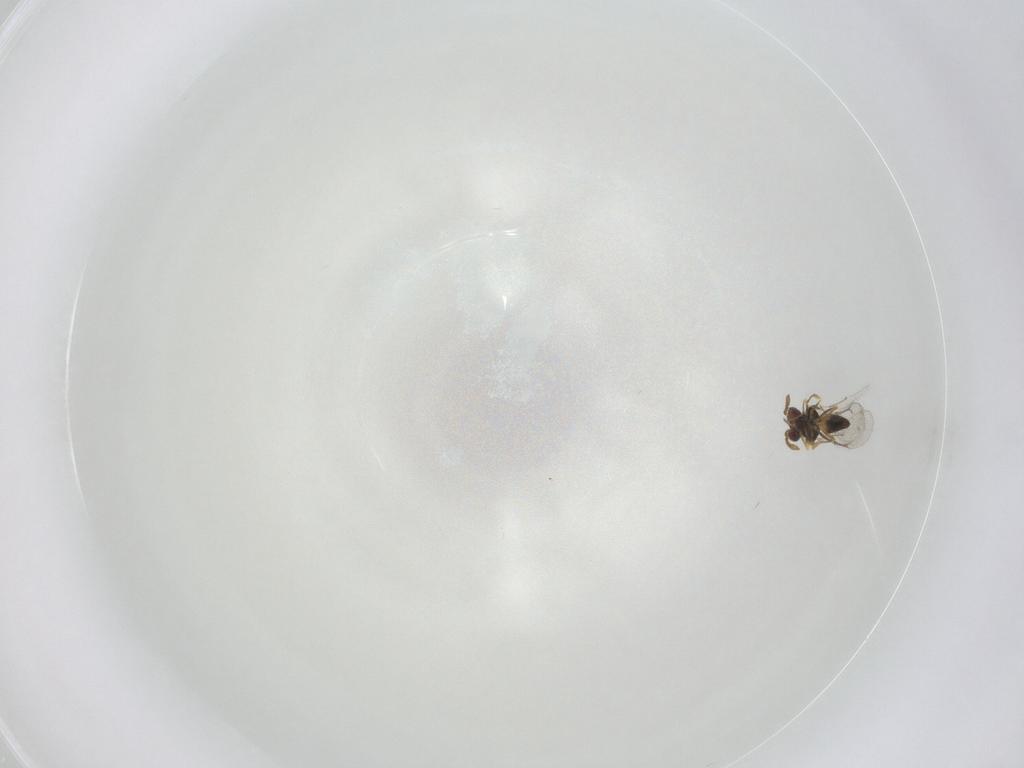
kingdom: Animalia
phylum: Arthropoda
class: Insecta
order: Hymenoptera
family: Eulophidae
